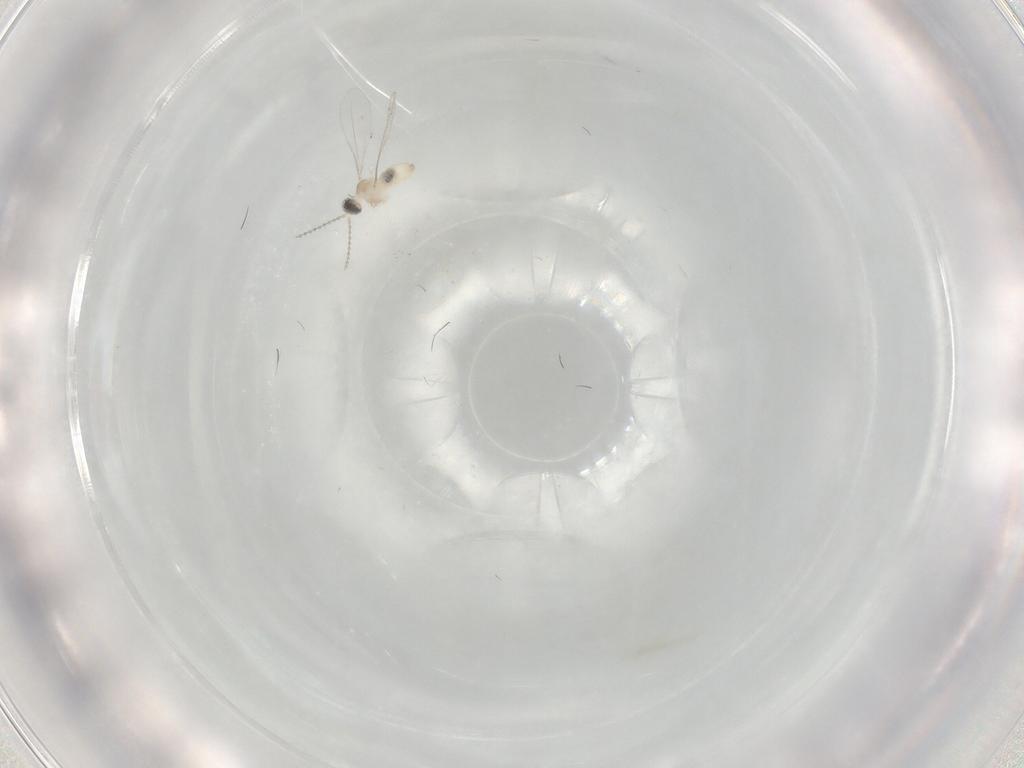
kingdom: Animalia
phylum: Arthropoda
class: Insecta
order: Diptera
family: Tabanidae
